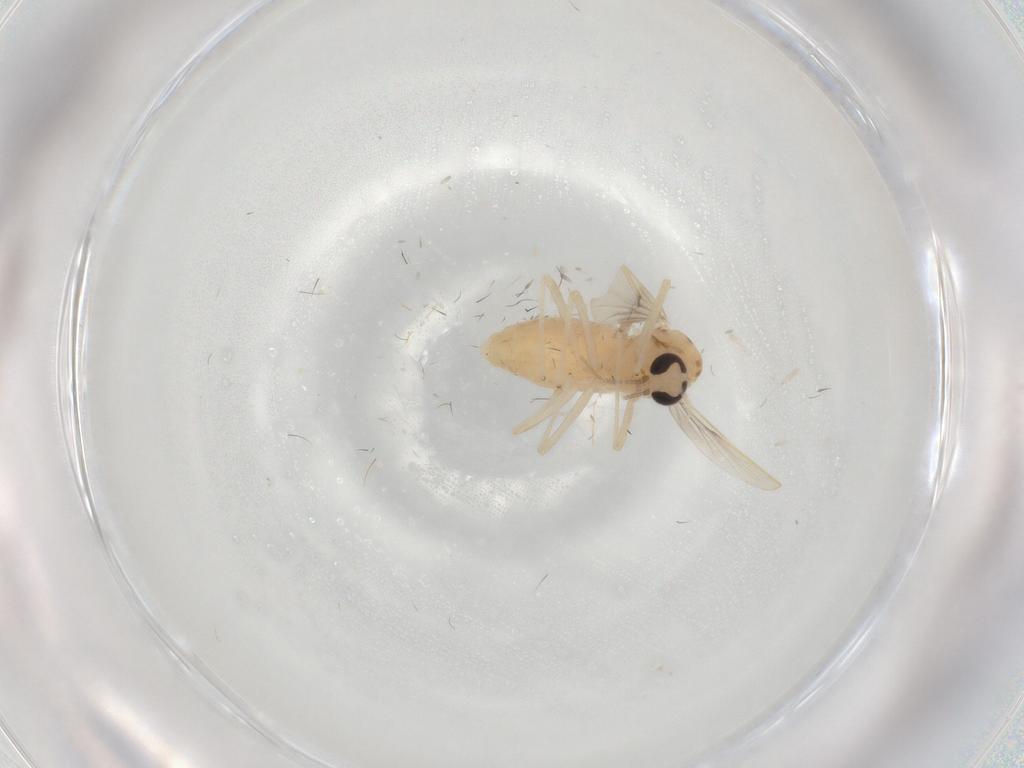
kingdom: Animalia
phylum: Arthropoda
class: Insecta
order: Diptera
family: Chironomidae
